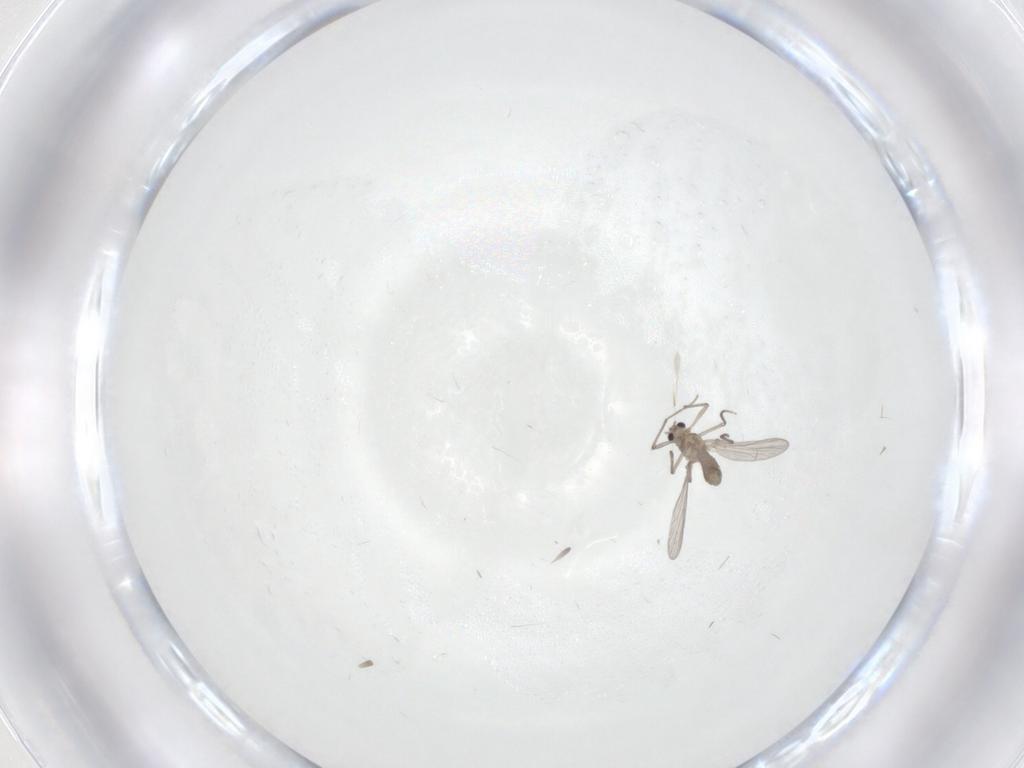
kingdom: Animalia
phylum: Arthropoda
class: Insecta
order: Diptera
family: Chironomidae
